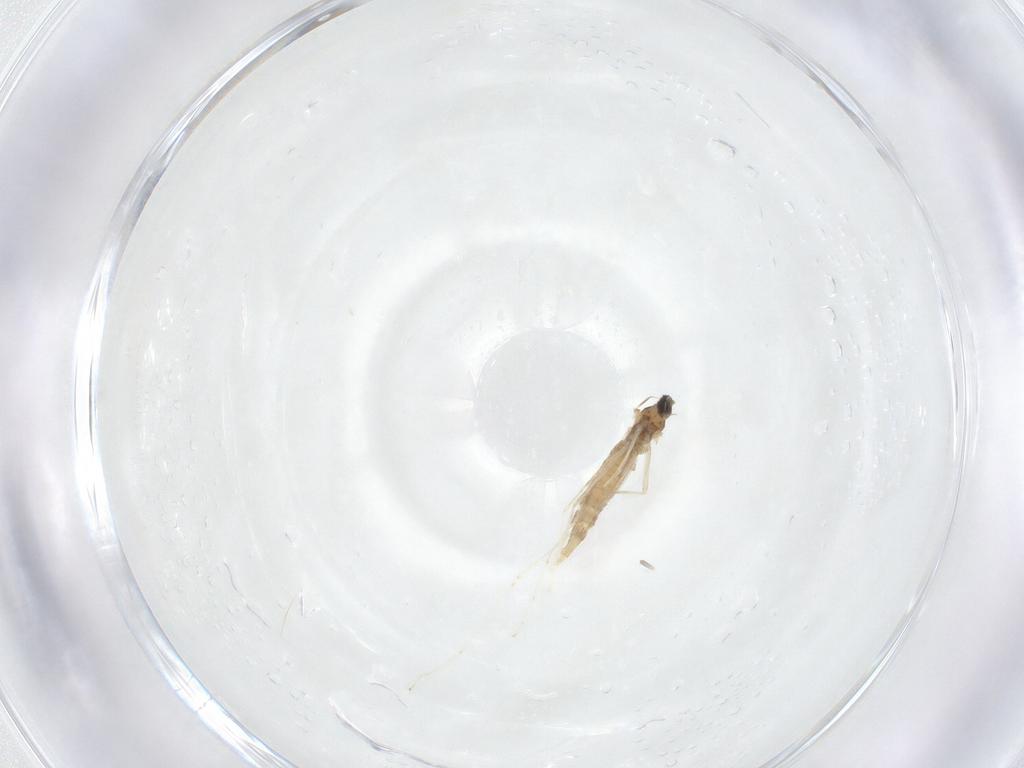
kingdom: Animalia
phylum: Arthropoda
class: Insecta
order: Diptera
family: Cecidomyiidae
